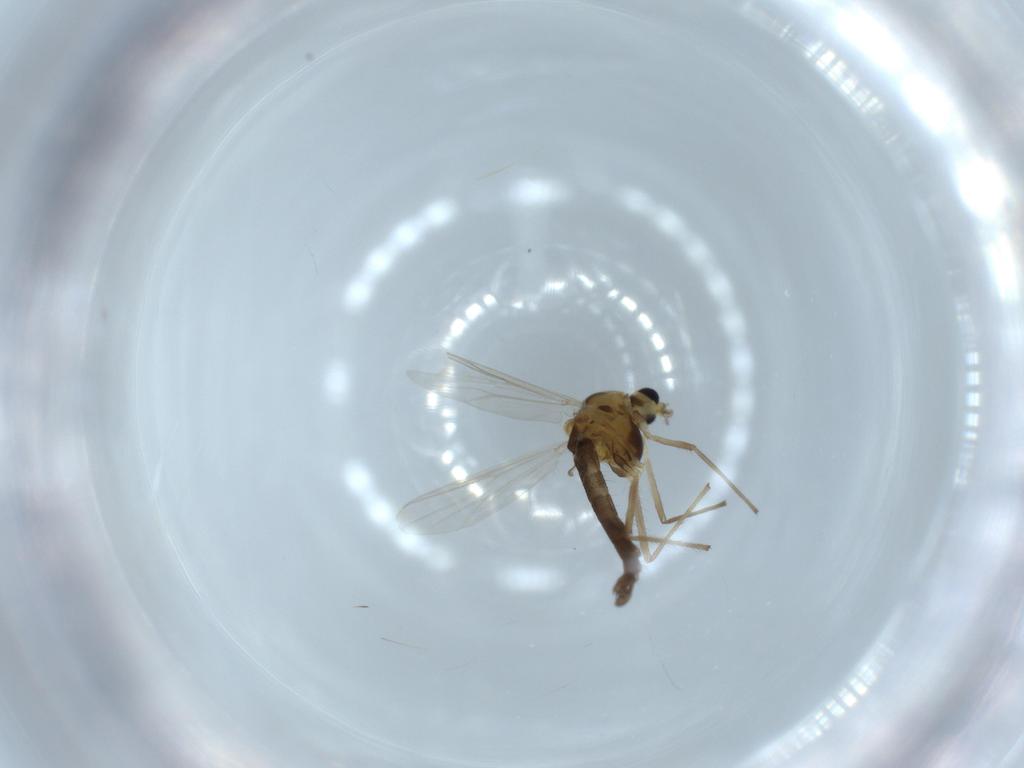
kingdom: Animalia
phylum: Arthropoda
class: Insecta
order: Diptera
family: Chironomidae
